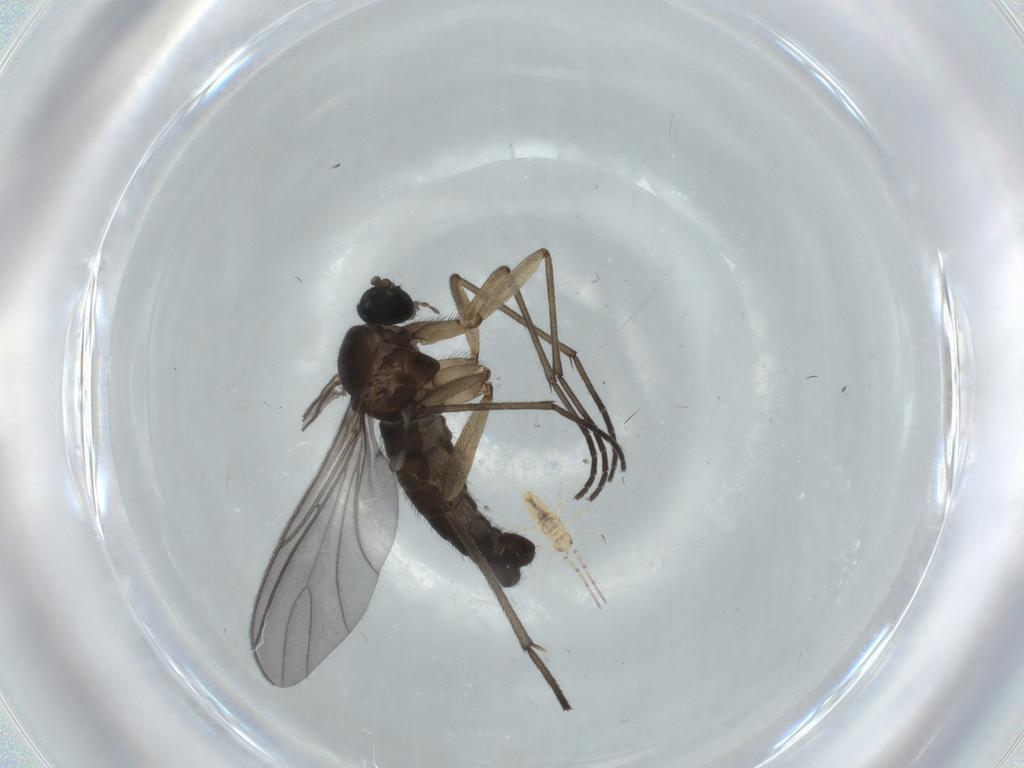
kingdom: Animalia
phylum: Arthropoda
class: Insecta
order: Diptera
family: Sciaridae
